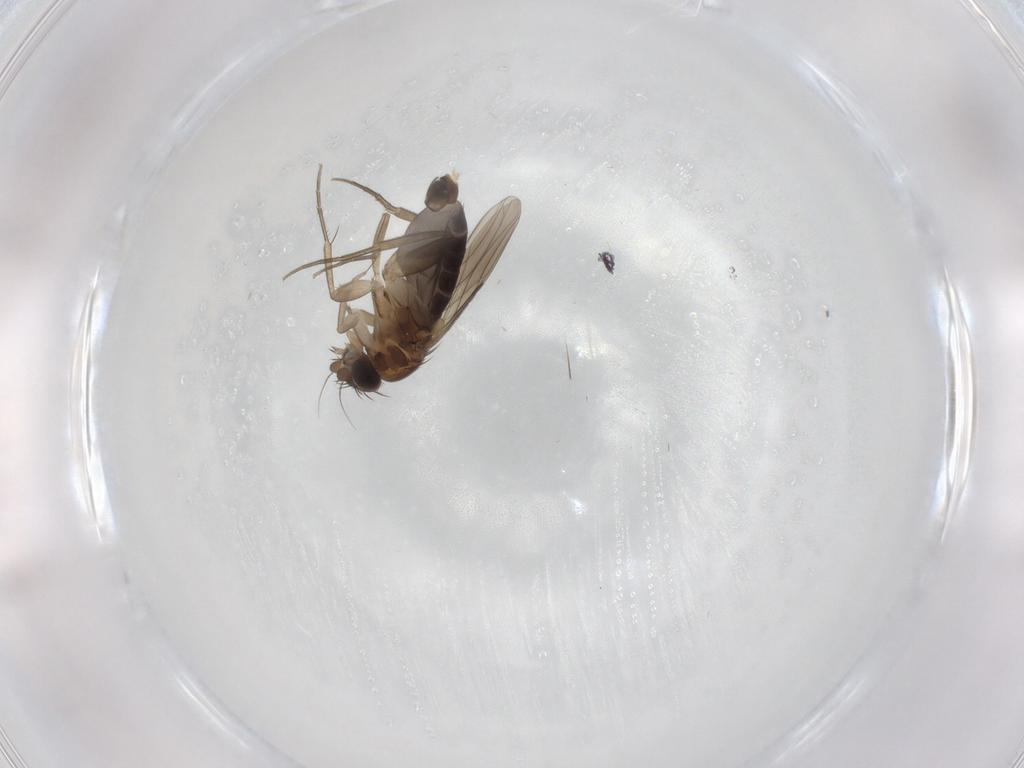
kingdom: Animalia
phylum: Arthropoda
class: Insecta
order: Diptera
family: Phoridae
